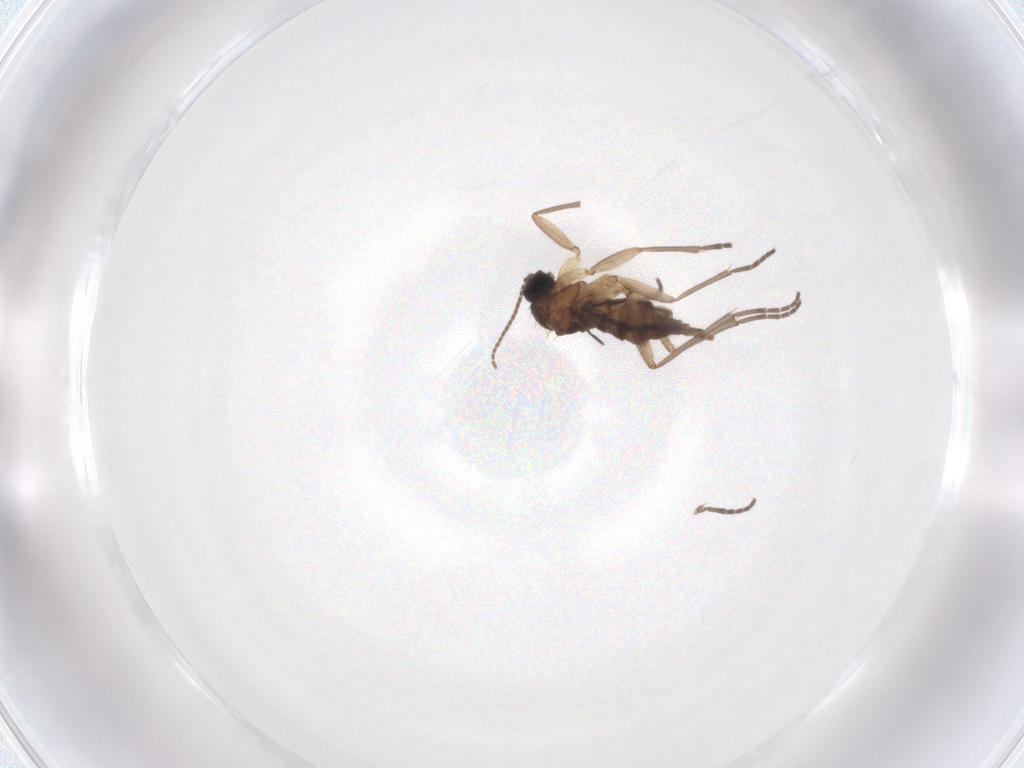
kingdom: Animalia
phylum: Arthropoda
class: Insecta
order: Diptera
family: Sciaridae
